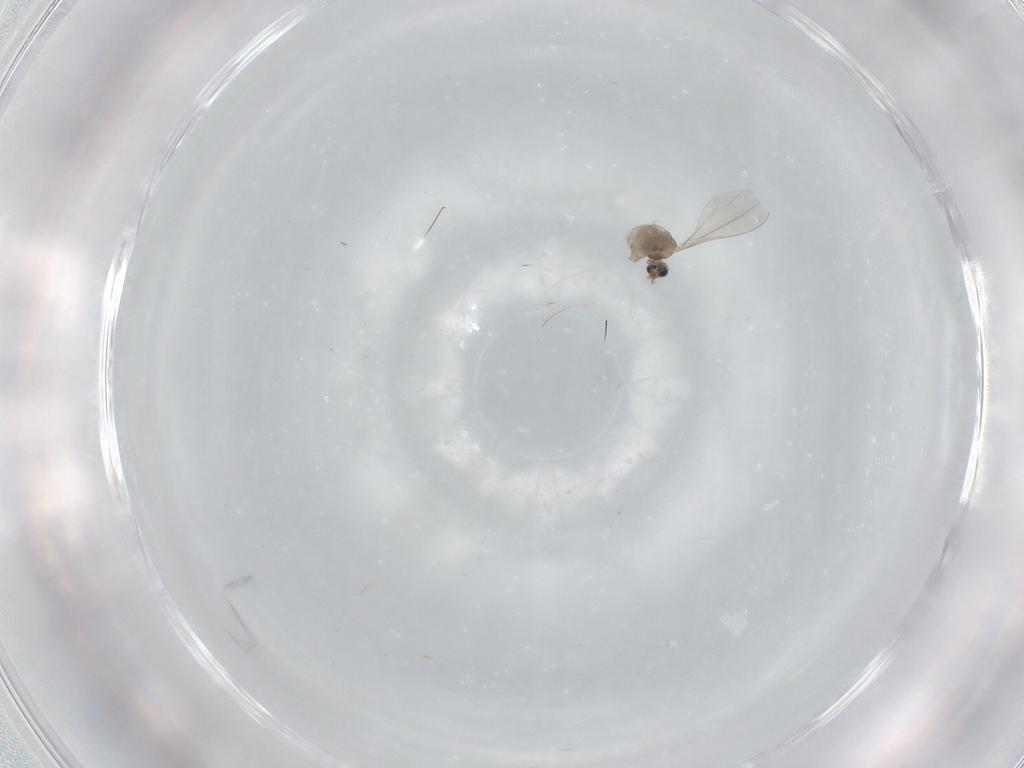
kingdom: Animalia
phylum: Arthropoda
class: Insecta
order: Diptera
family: Cecidomyiidae
